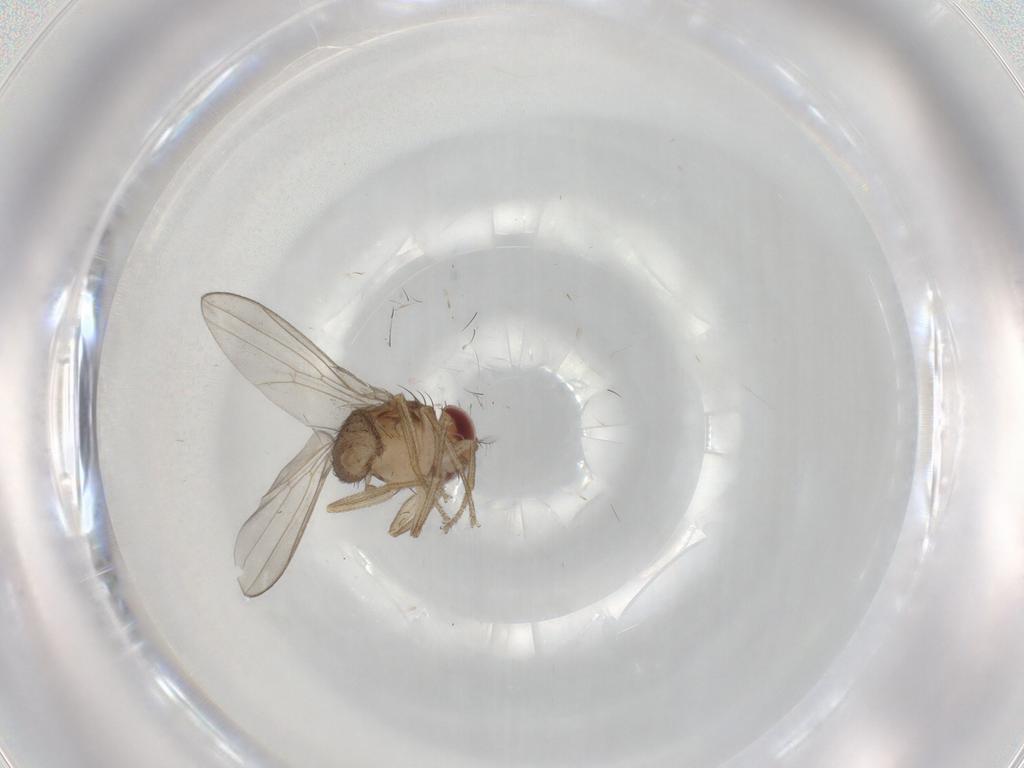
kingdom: Animalia
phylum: Arthropoda
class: Insecta
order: Diptera
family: Drosophilidae
